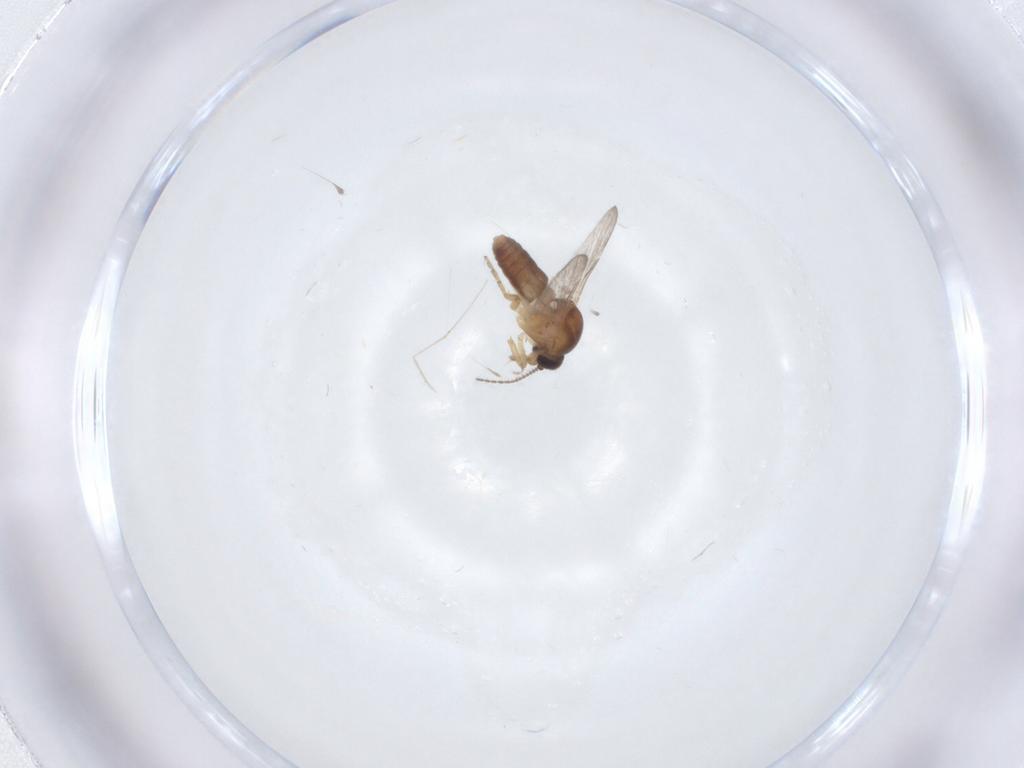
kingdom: Animalia
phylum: Arthropoda
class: Insecta
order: Diptera
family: Ceratopogonidae
